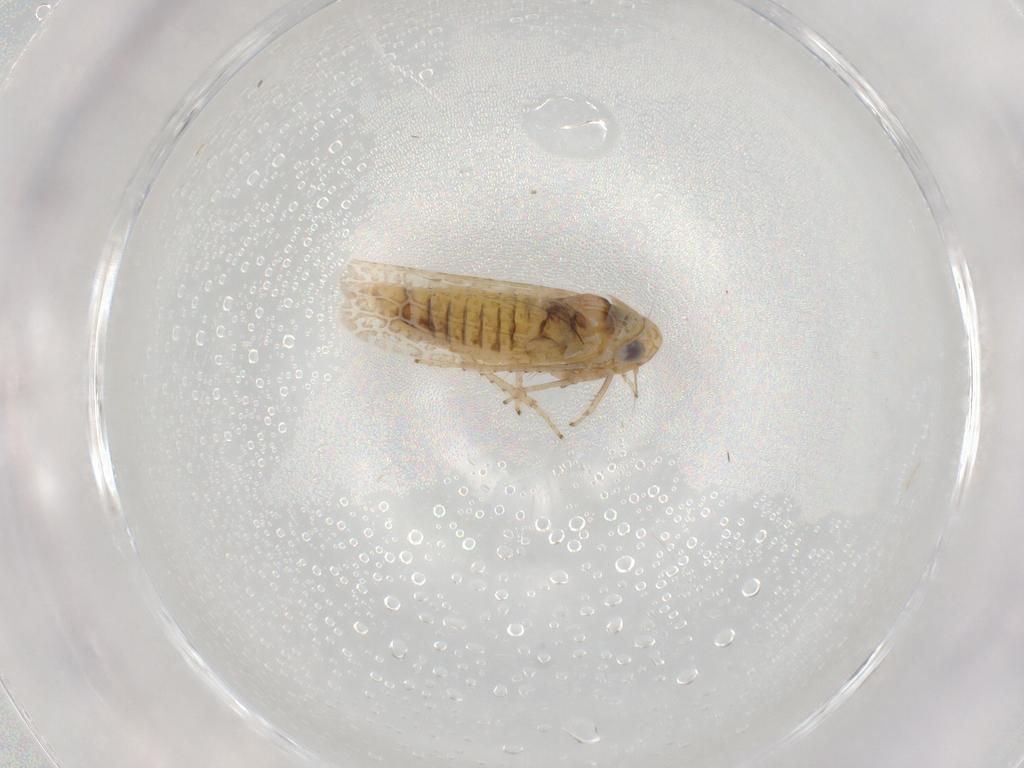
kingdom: Animalia
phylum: Arthropoda
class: Insecta
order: Hemiptera
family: Cicadellidae
